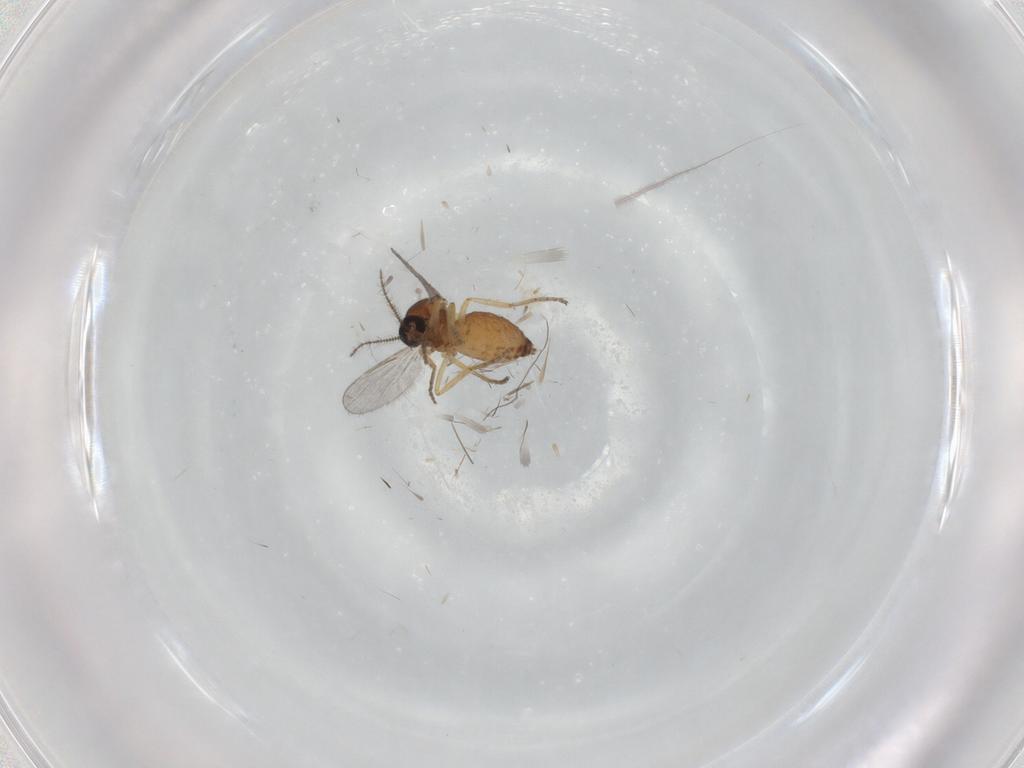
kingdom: Animalia
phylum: Arthropoda
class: Insecta
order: Diptera
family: Ceratopogonidae
